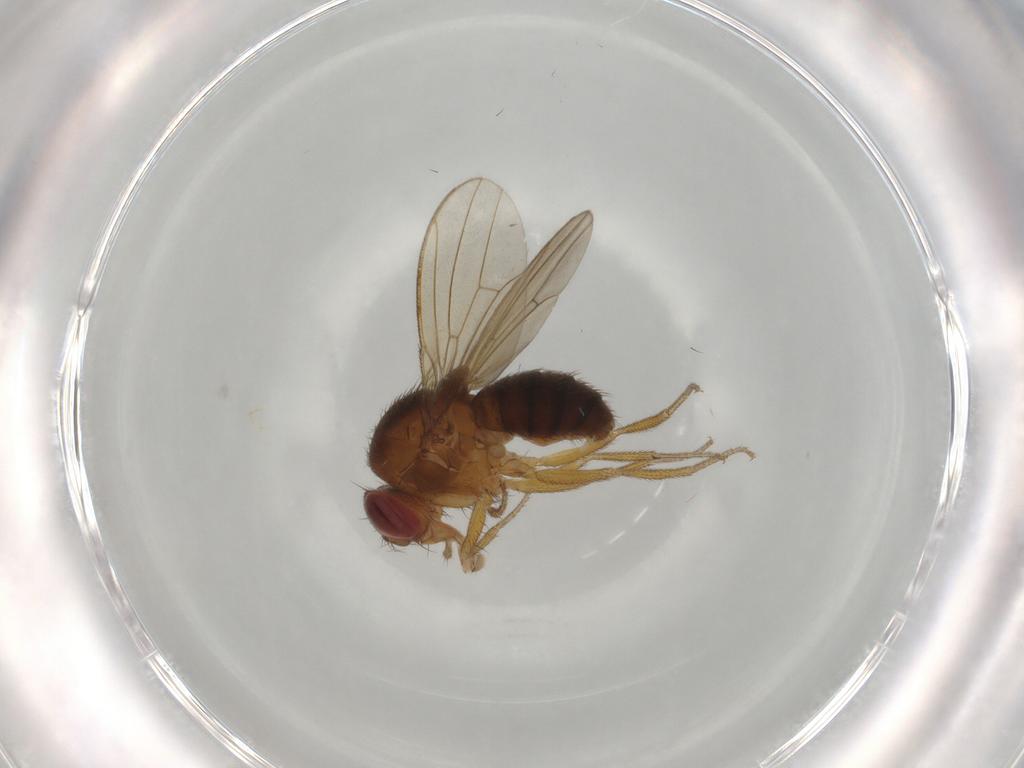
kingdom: Animalia
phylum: Arthropoda
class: Insecta
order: Diptera
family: Drosophilidae
